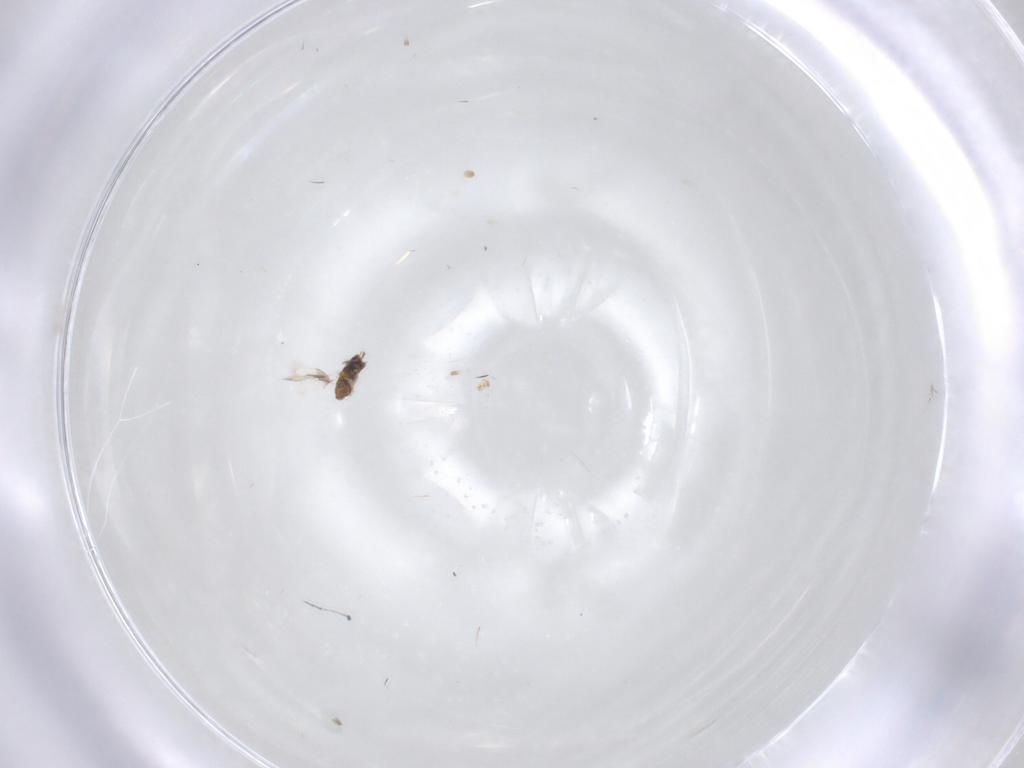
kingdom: Animalia
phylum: Arthropoda
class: Insecta
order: Hymenoptera
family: Aphelinidae
